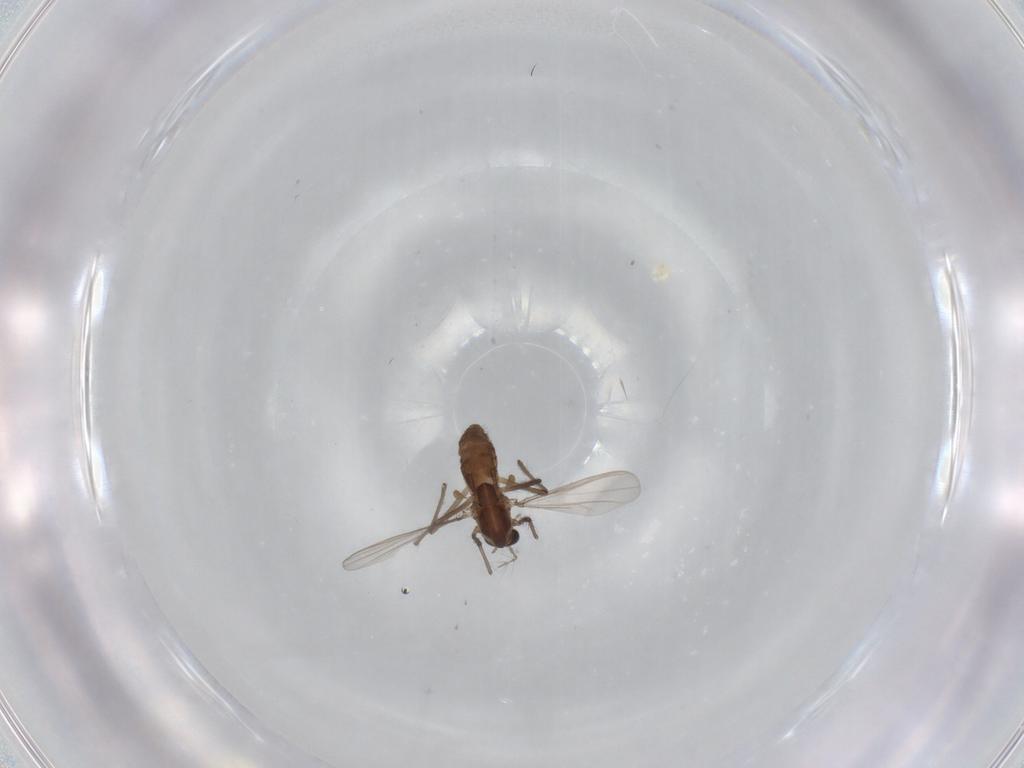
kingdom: Animalia
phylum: Arthropoda
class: Insecta
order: Diptera
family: Chironomidae
